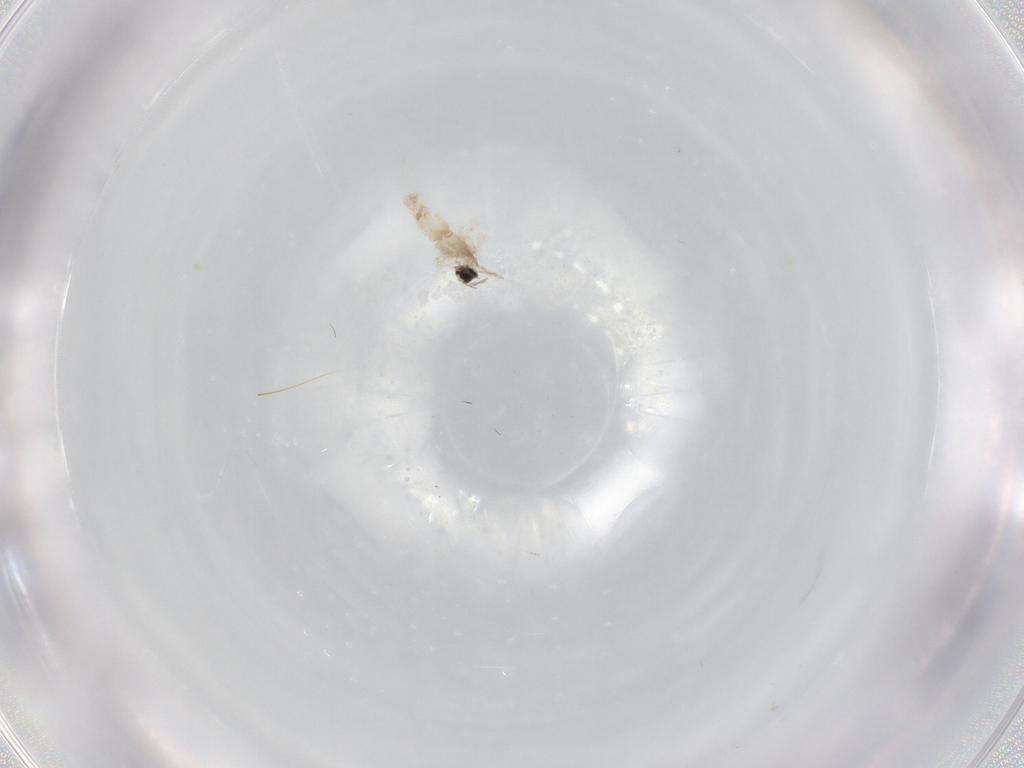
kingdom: Animalia
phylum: Arthropoda
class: Insecta
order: Diptera
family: Cecidomyiidae
